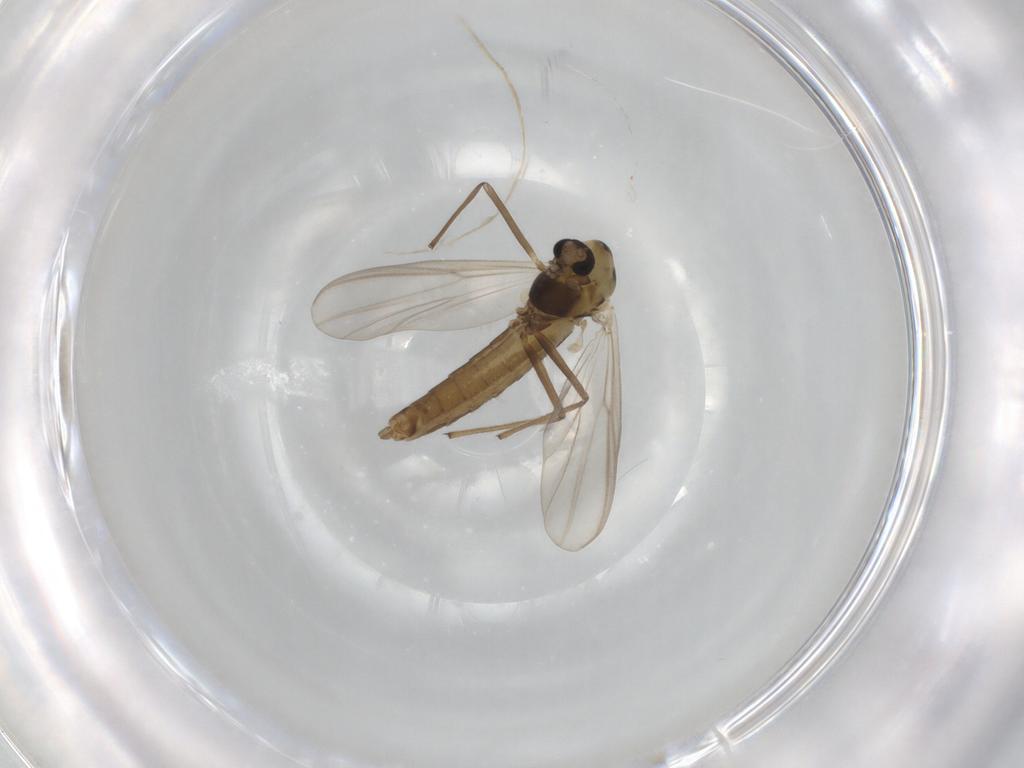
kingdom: Animalia
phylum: Arthropoda
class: Insecta
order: Diptera
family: Chironomidae
